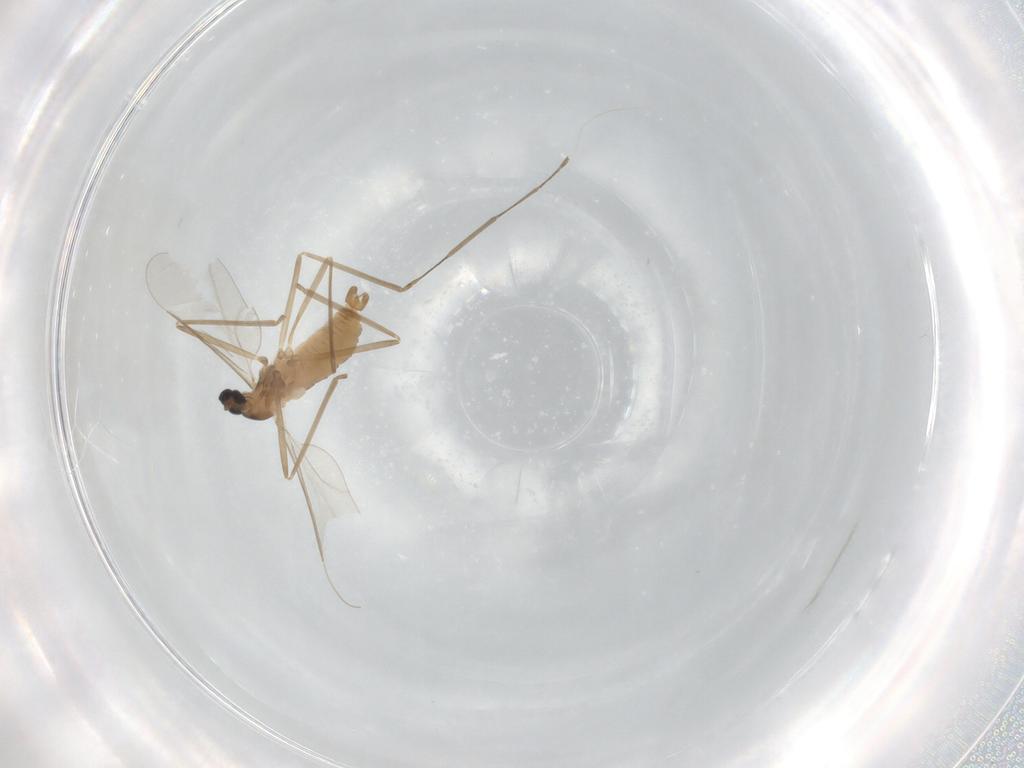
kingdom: Animalia
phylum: Arthropoda
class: Insecta
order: Diptera
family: Cecidomyiidae
